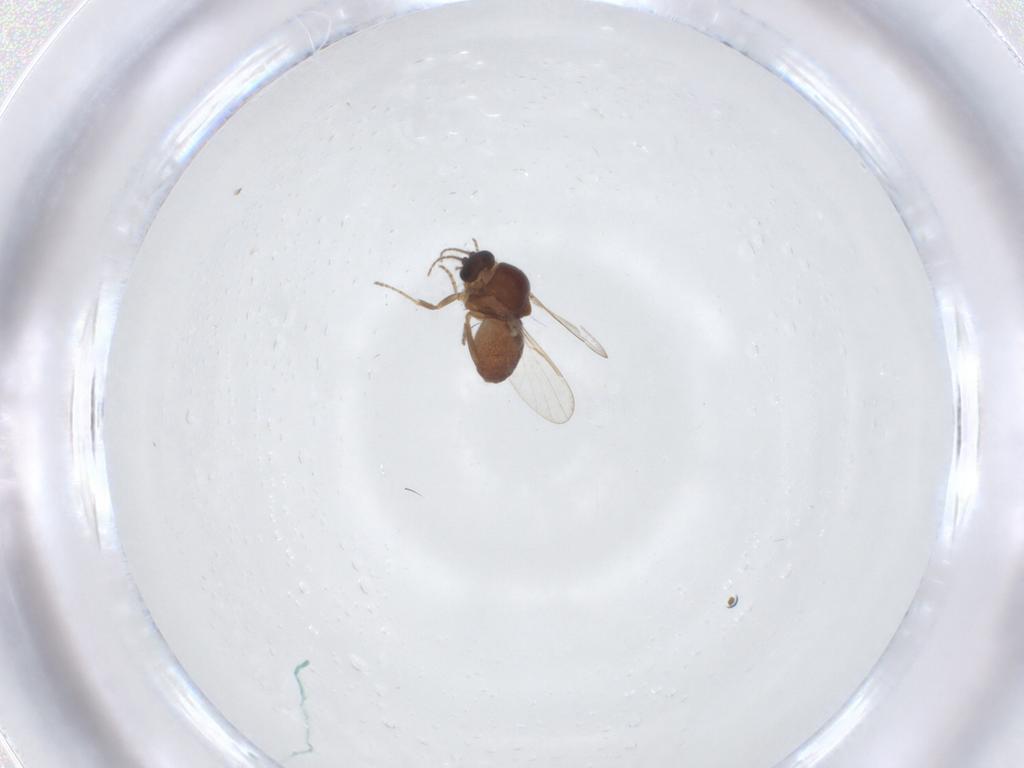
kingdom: Animalia
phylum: Arthropoda
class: Insecta
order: Diptera
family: Ceratopogonidae
